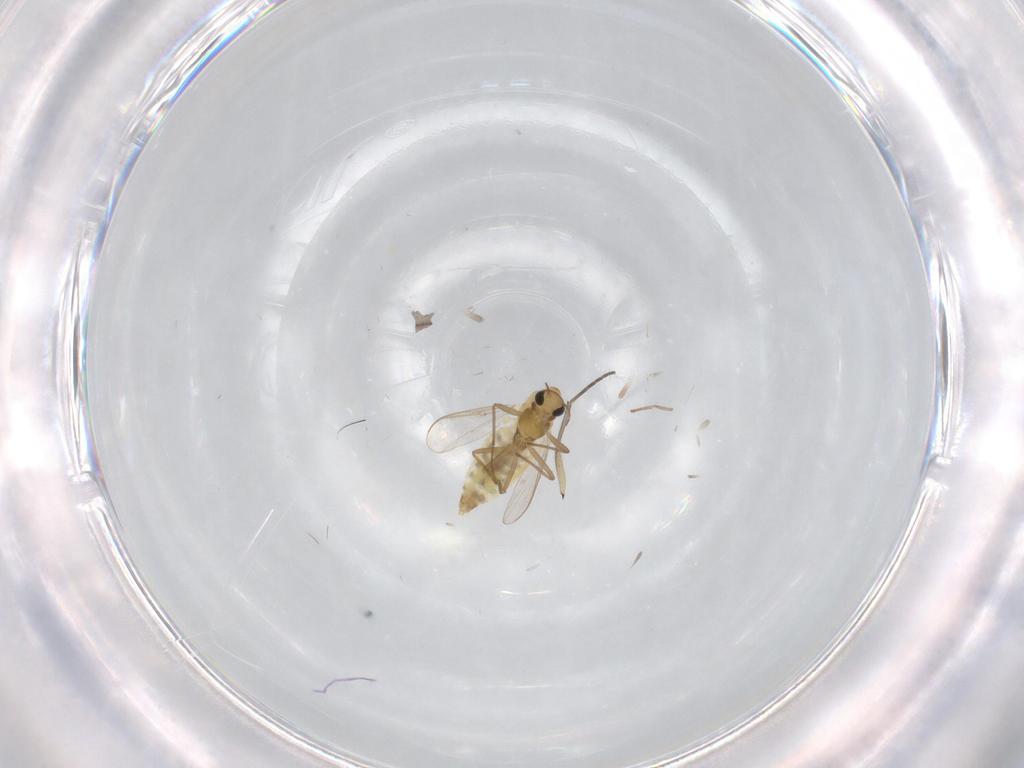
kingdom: Animalia
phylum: Arthropoda
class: Insecta
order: Diptera
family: Chironomidae
